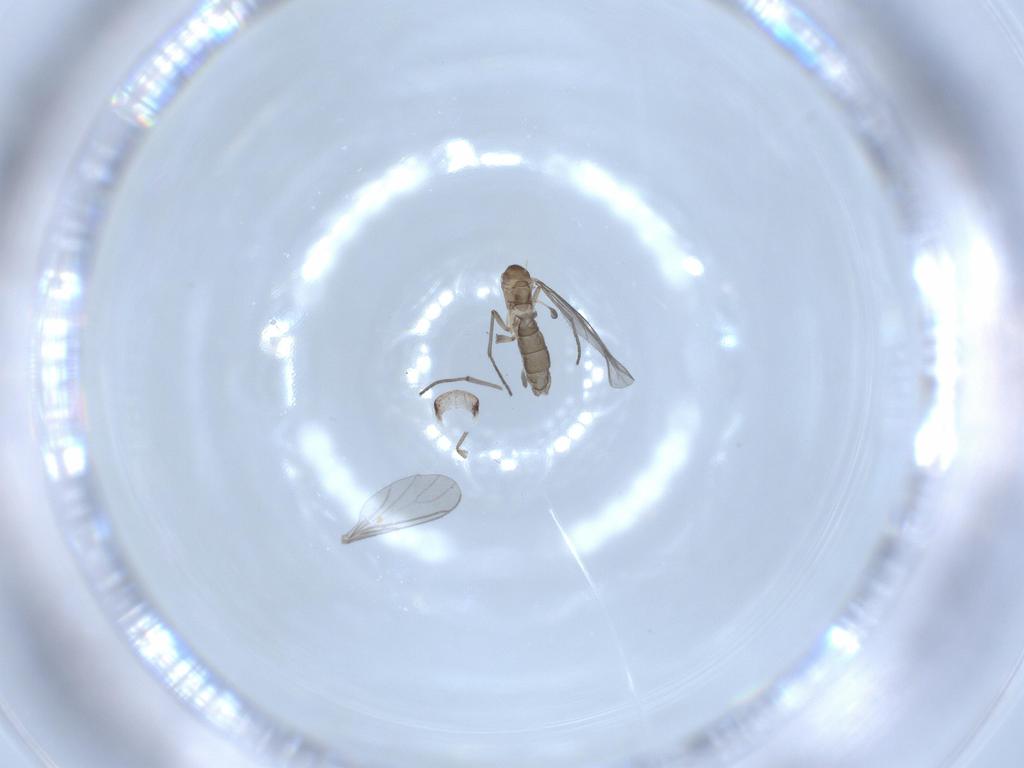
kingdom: Animalia
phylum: Arthropoda
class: Insecta
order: Diptera
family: Sciaridae
